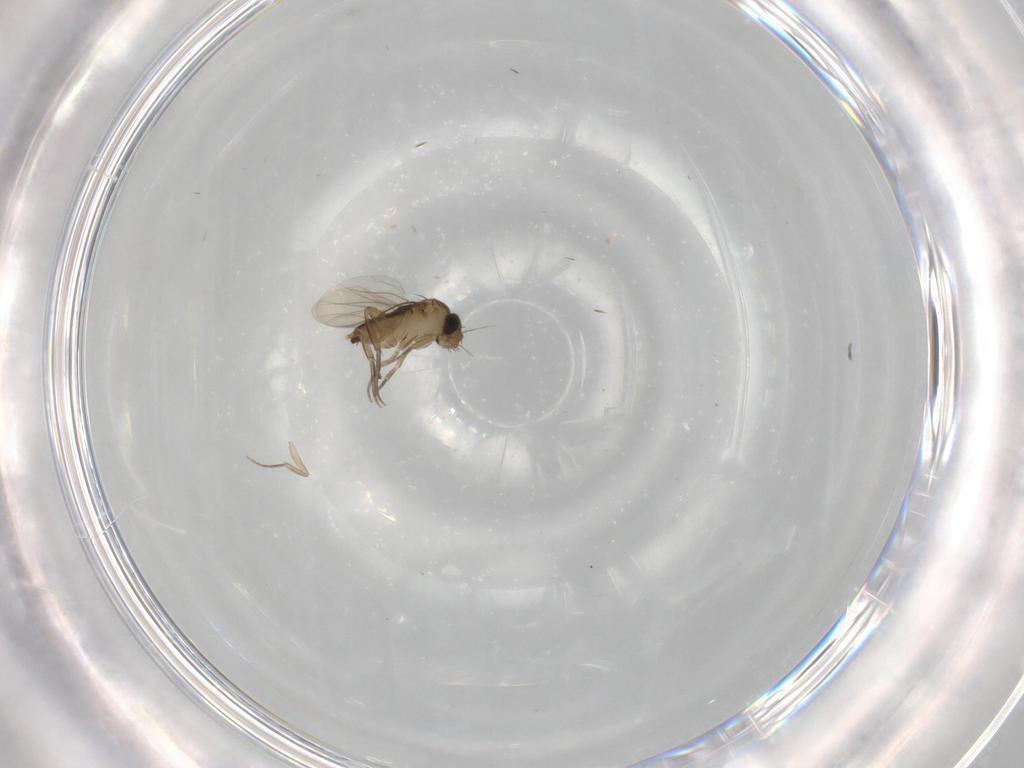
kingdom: Animalia
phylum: Arthropoda
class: Insecta
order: Diptera
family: Phoridae
